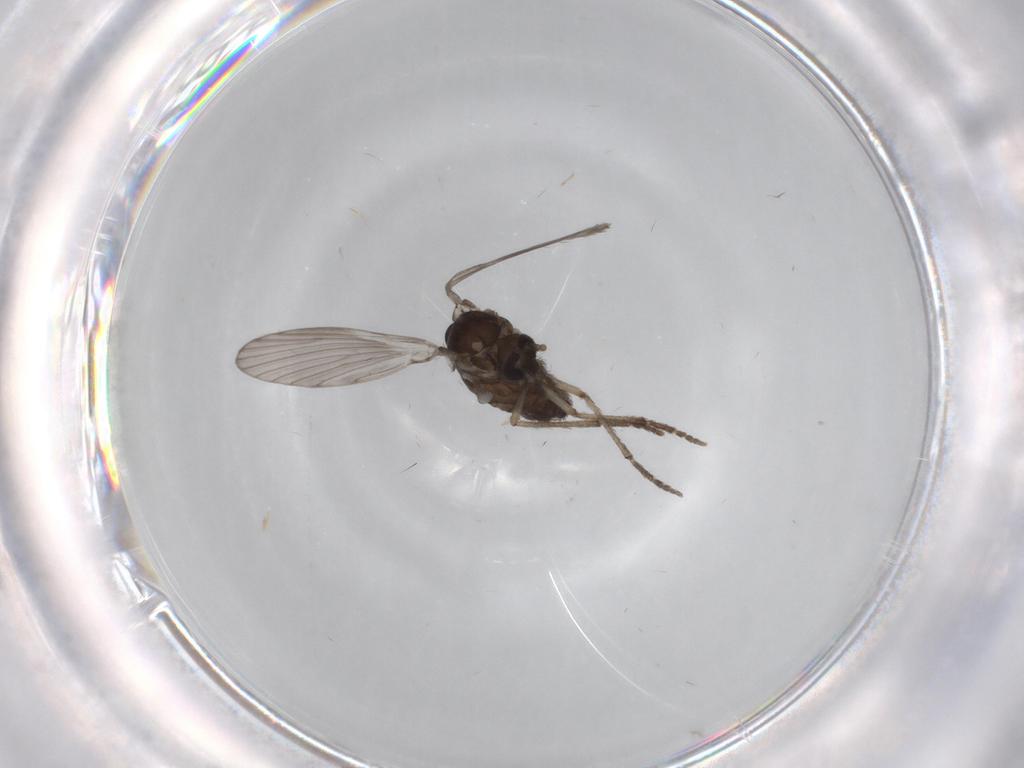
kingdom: Animalia
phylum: Arthropoda
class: Insecta
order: Diptera
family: Psychodidae
